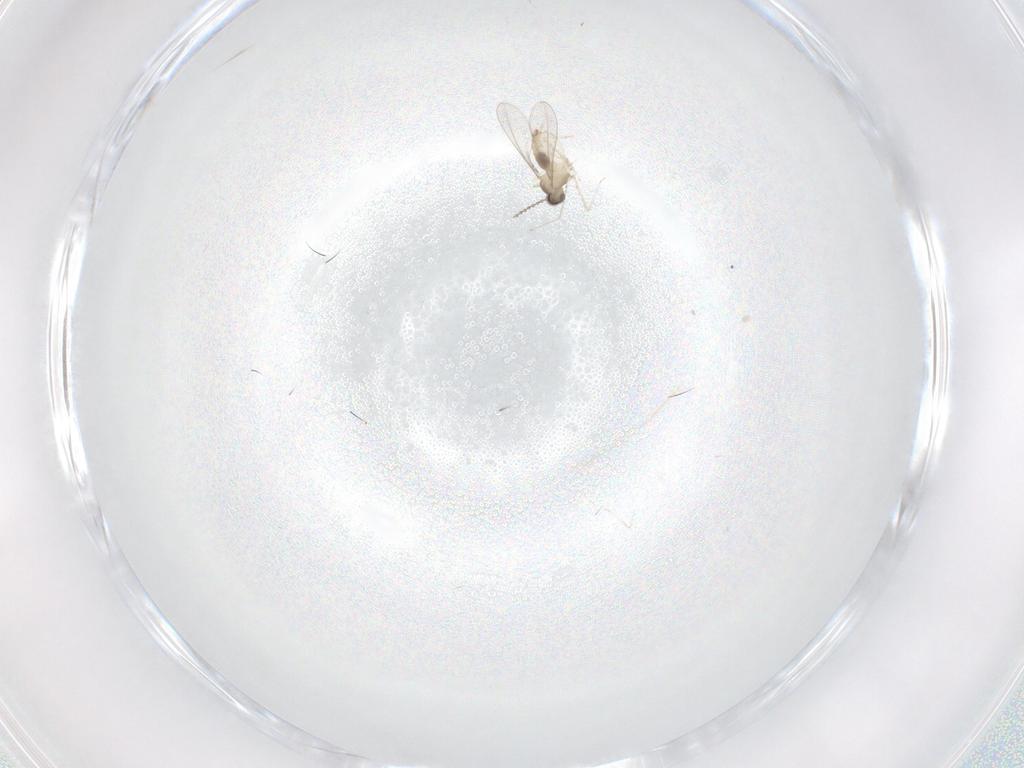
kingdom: Animalia
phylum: Arthropoda
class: Insecta
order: Diptera
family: Cecidomyiidae
